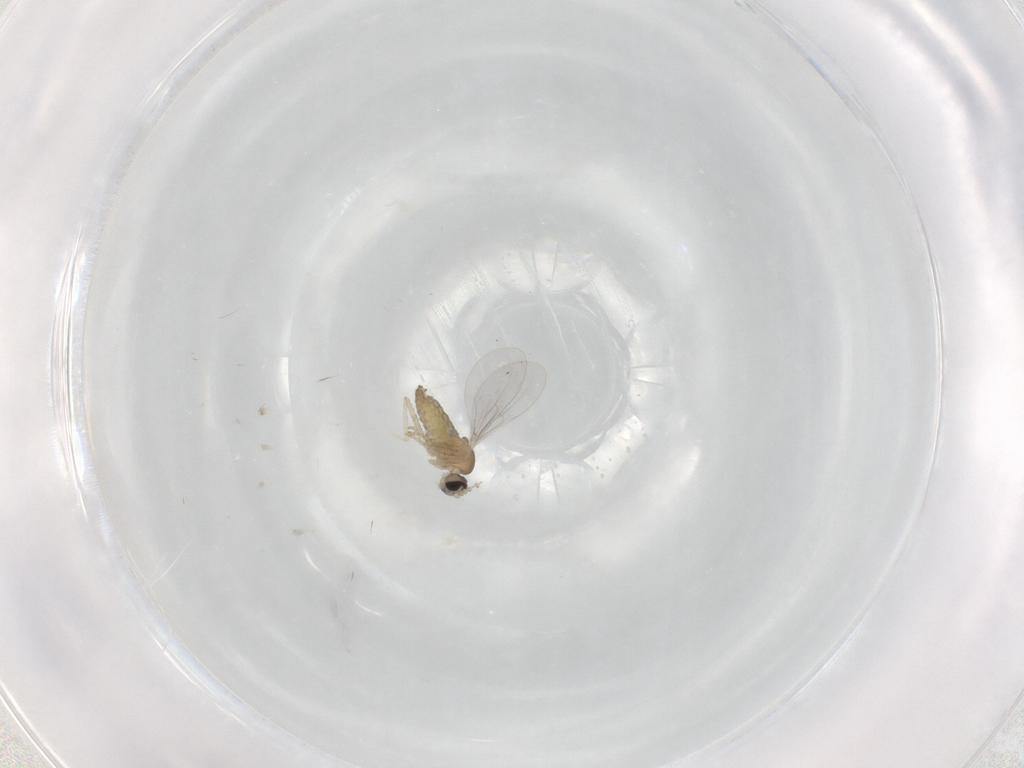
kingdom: Animalia
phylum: Arthropoda
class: Insecta
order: Diptera
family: Cecidomyiidae
